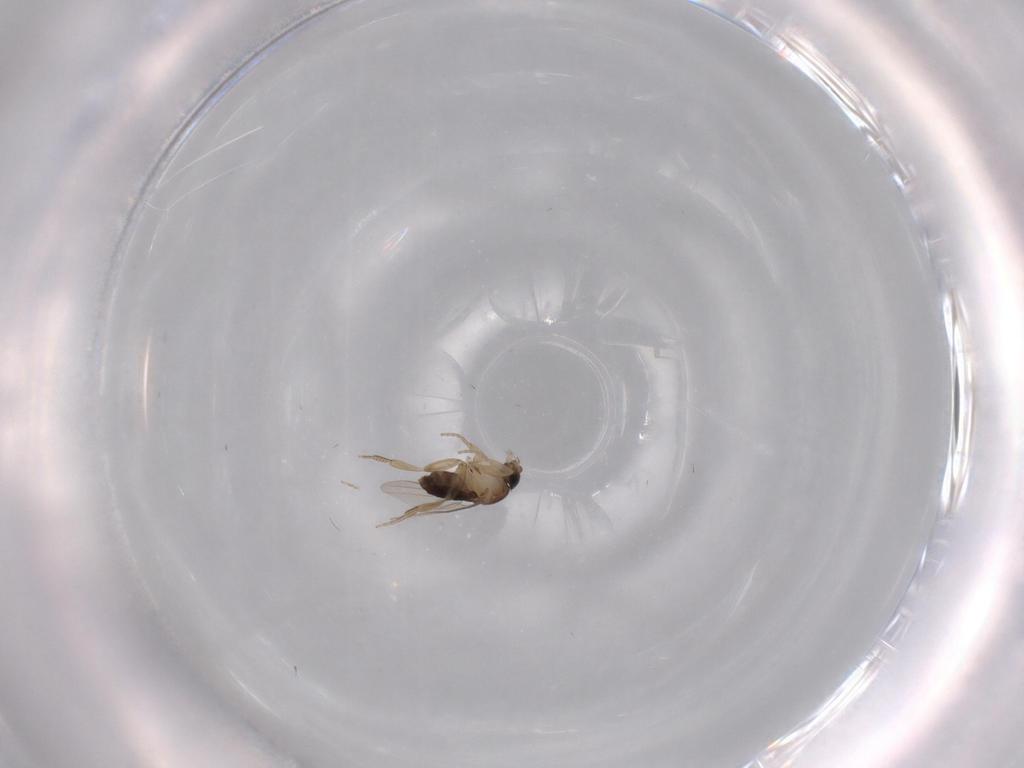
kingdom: Animalia
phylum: Arthropoda
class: Insecta
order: Diptera
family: Phoridae
